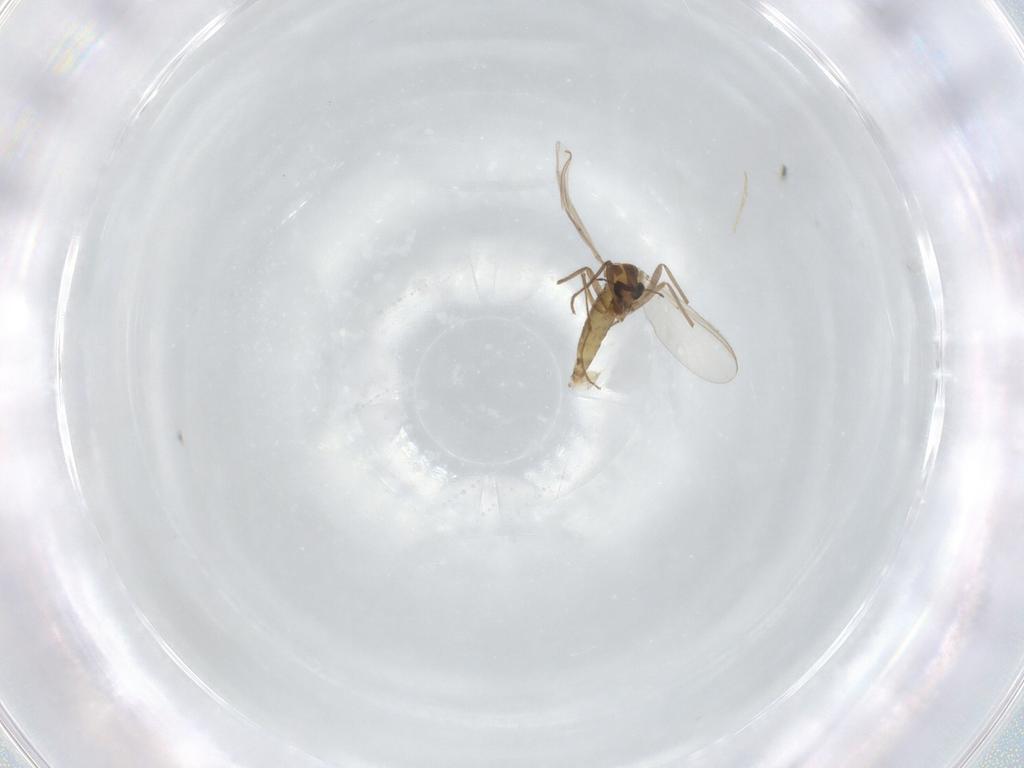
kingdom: Animalia
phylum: Arthropoda
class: Insecta
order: Diptera
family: Chironomidae
